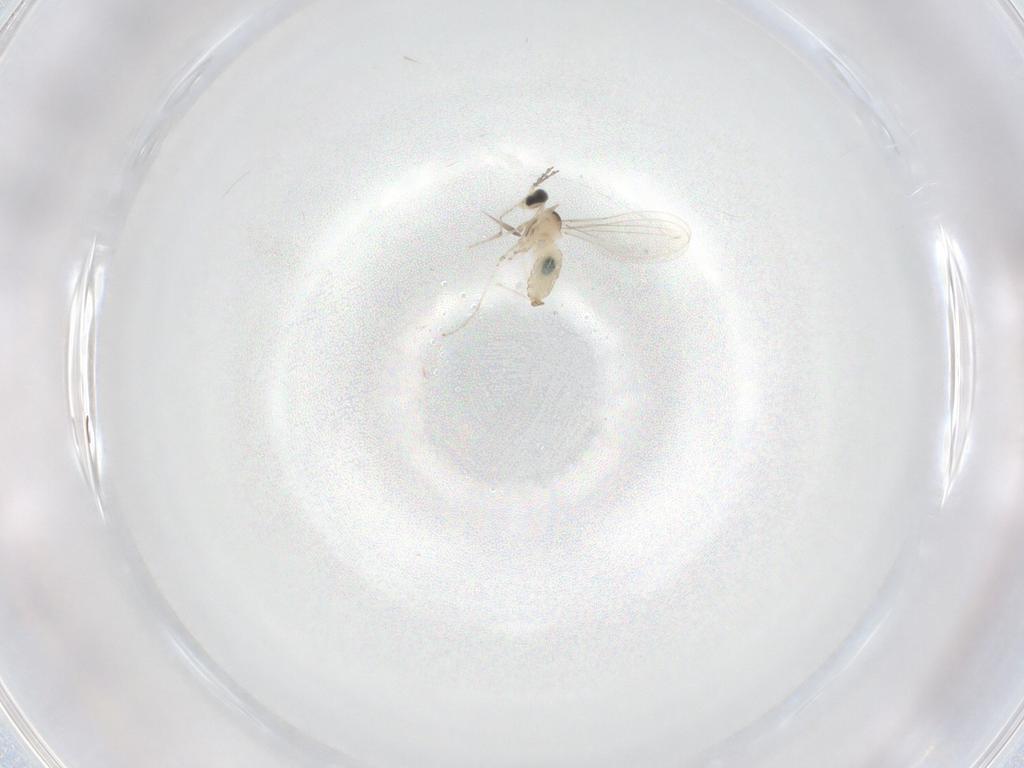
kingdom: Animalia
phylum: Arthropoda
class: Insecta
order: Diptera
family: Cecidomyiidae
